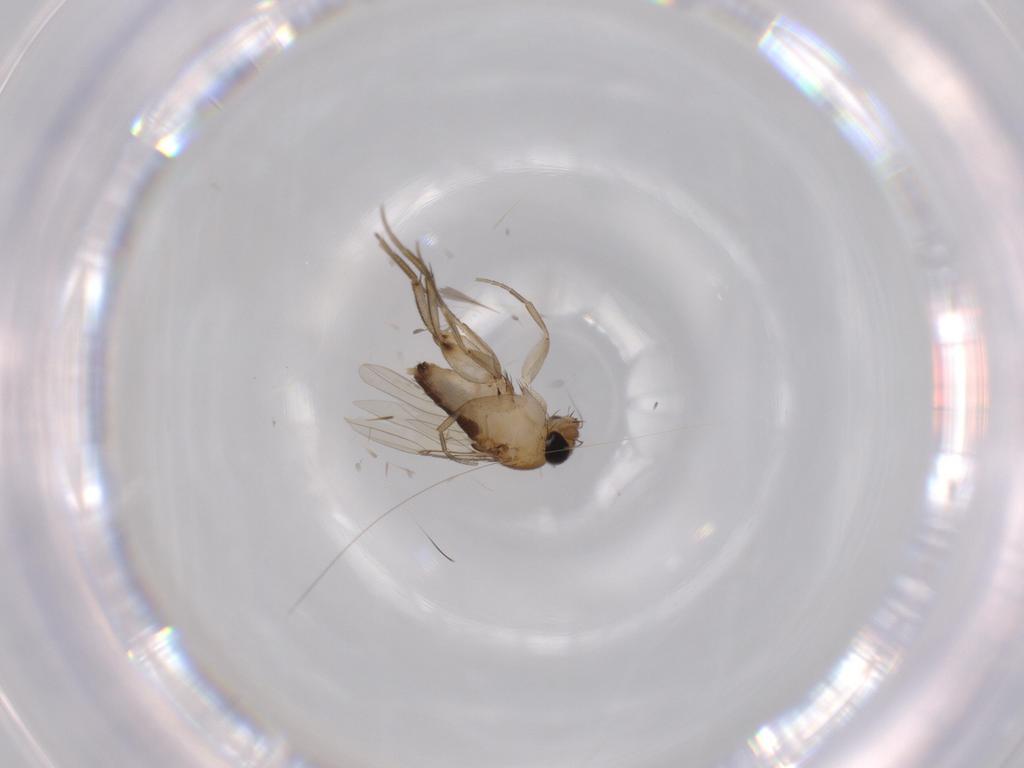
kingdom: Animalia
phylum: Arthropoda
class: Insecta
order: Diptera
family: Phoridae
